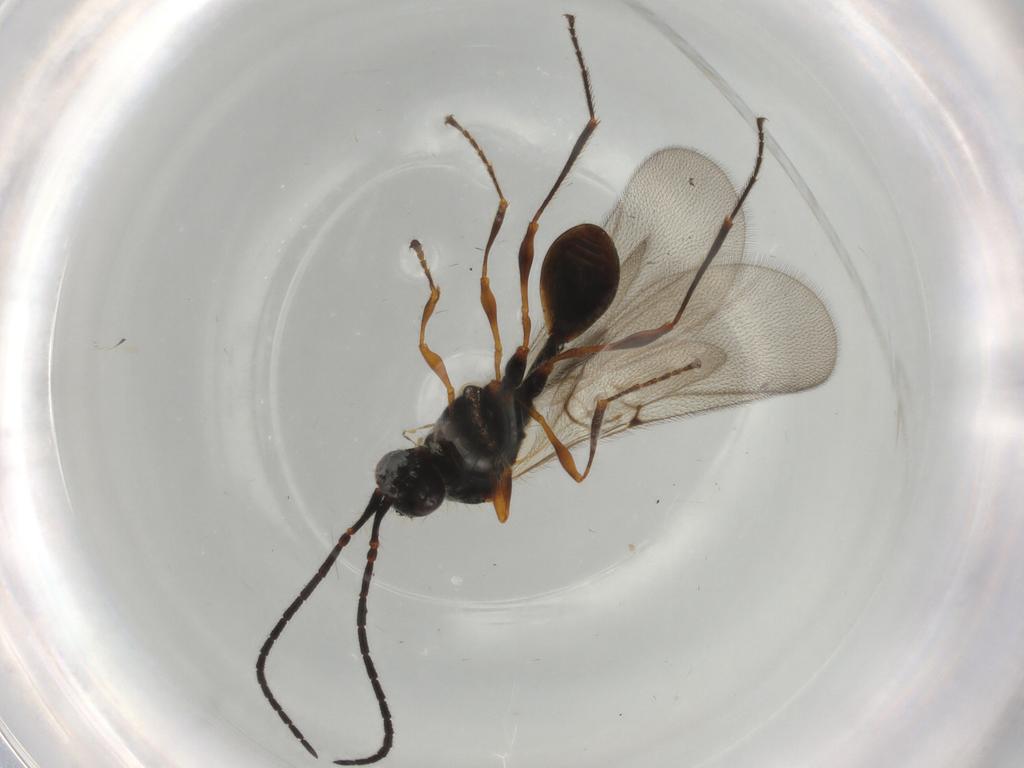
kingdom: Animalia
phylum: Arthropoda
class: Insecta
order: Hymenoptera
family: Diapriidae
